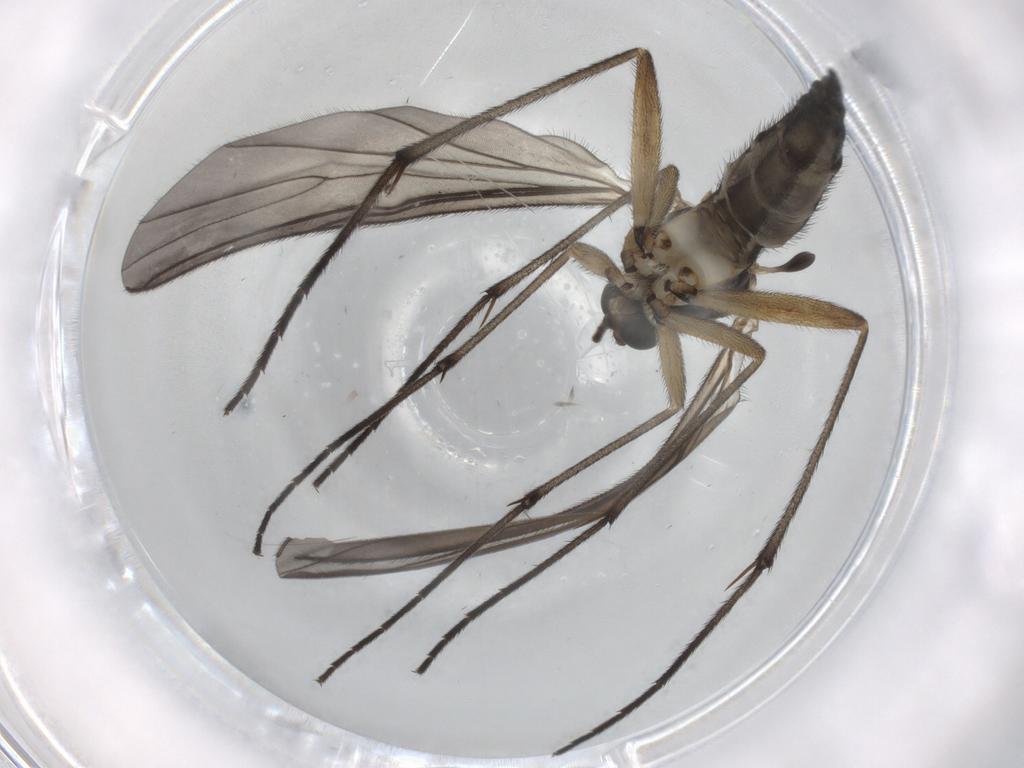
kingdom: Animalia
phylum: Arthropoda
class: Insecta
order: Diptera
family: Sciaridae
